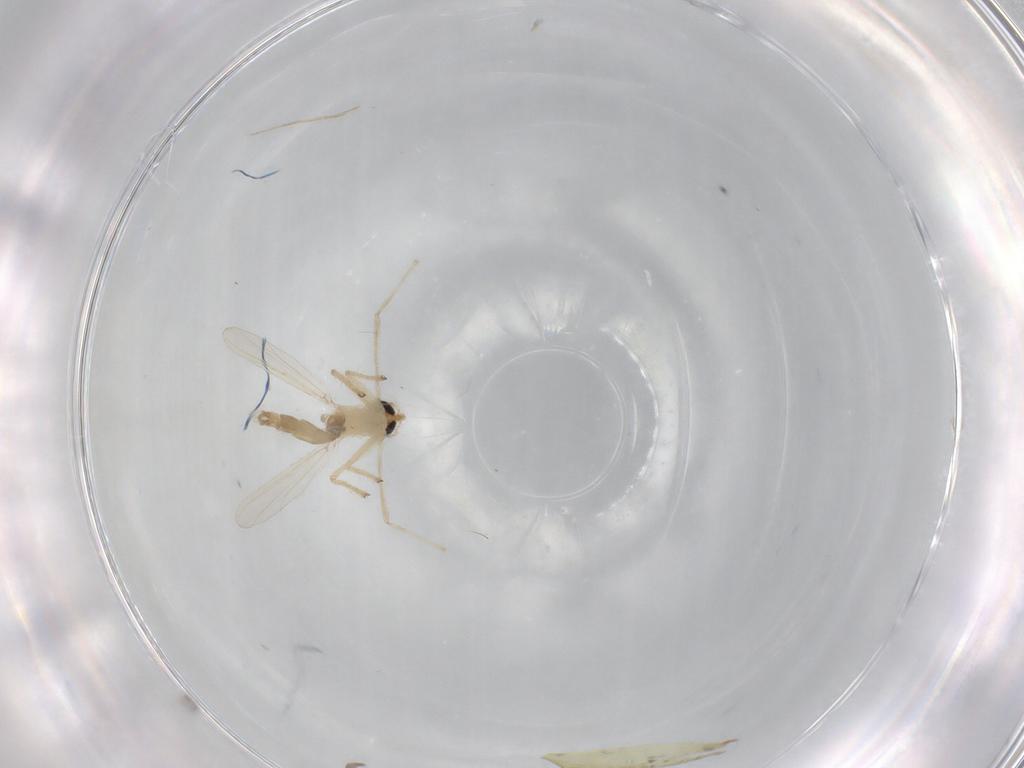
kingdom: Animalia
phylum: Arthropoda
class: Insecta
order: Diptera
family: Chironomidae
